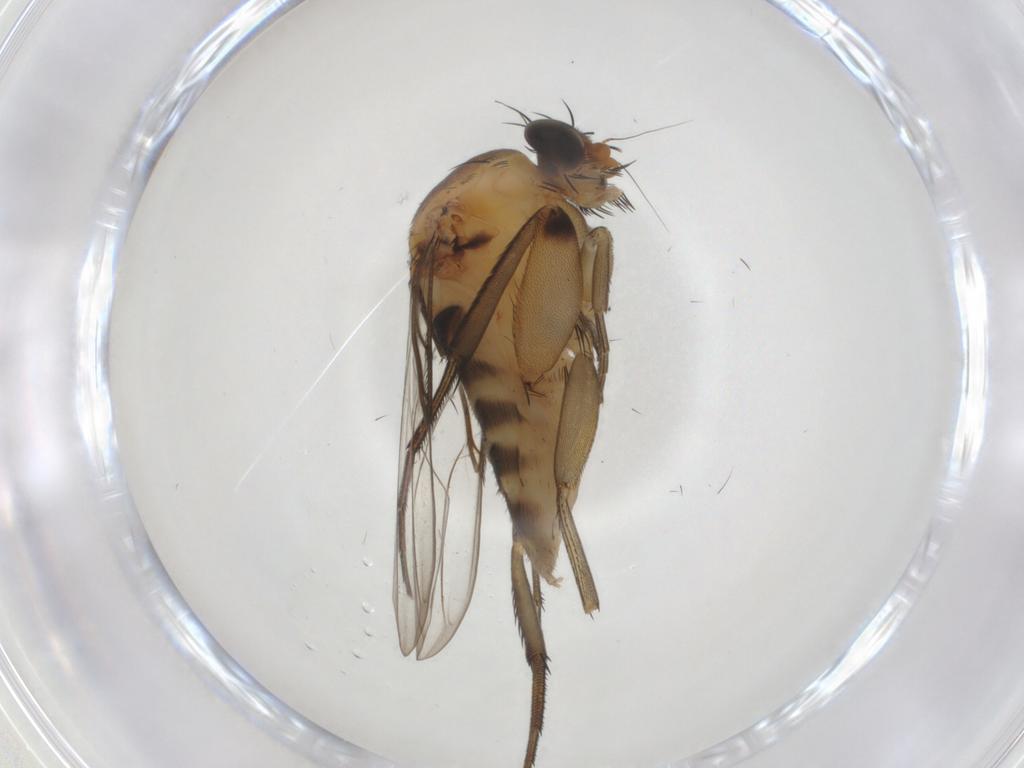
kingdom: Animalia
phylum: Arthropoda
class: Insecta
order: Diptera
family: Phoridae
